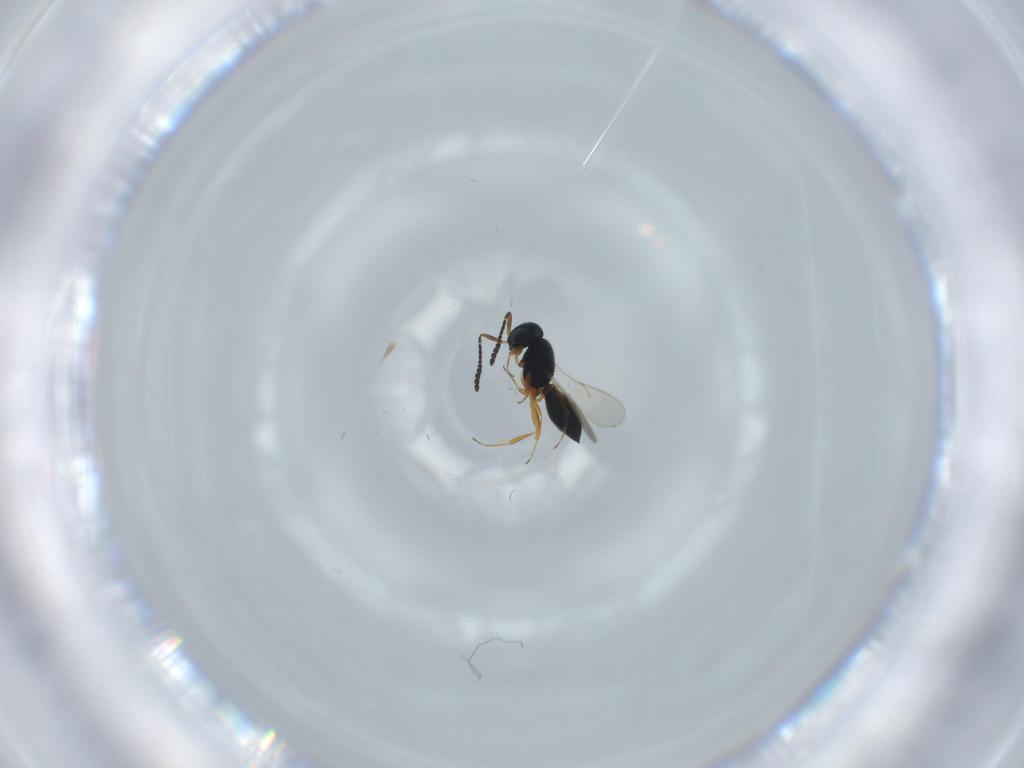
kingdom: Animalia
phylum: Arthropoda
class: Insecta
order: Hymenoptera
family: Scelionidae
